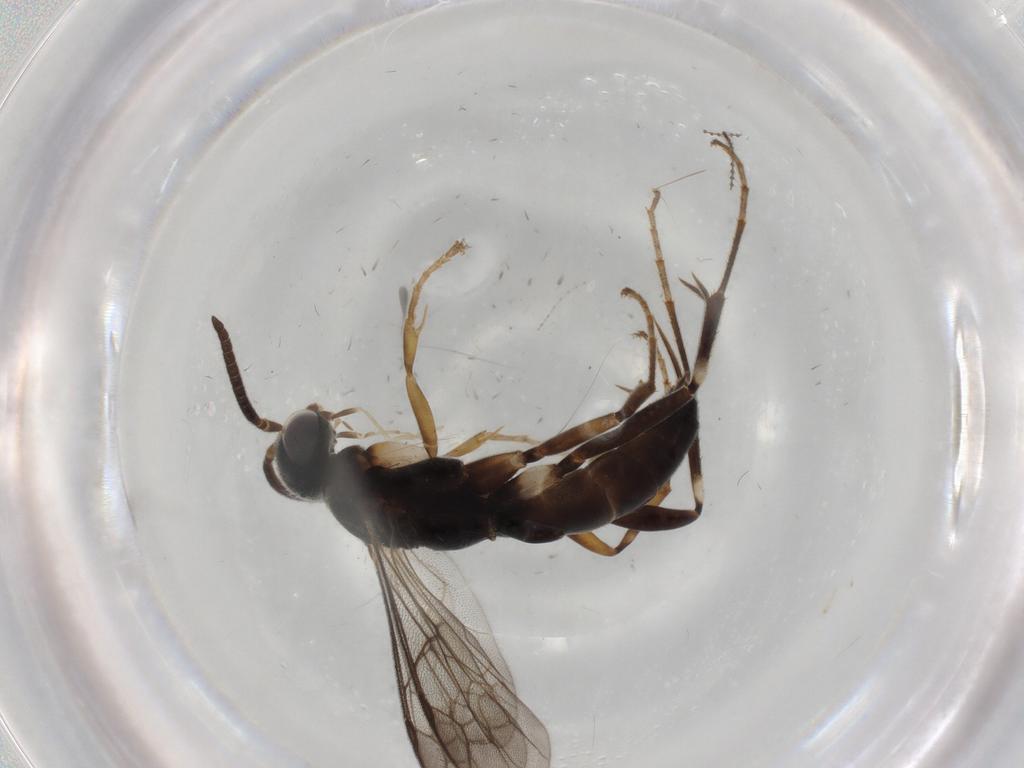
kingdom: Animalia
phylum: Arthropoda
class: Insecta
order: Hymenoptera
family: Pompilidae
